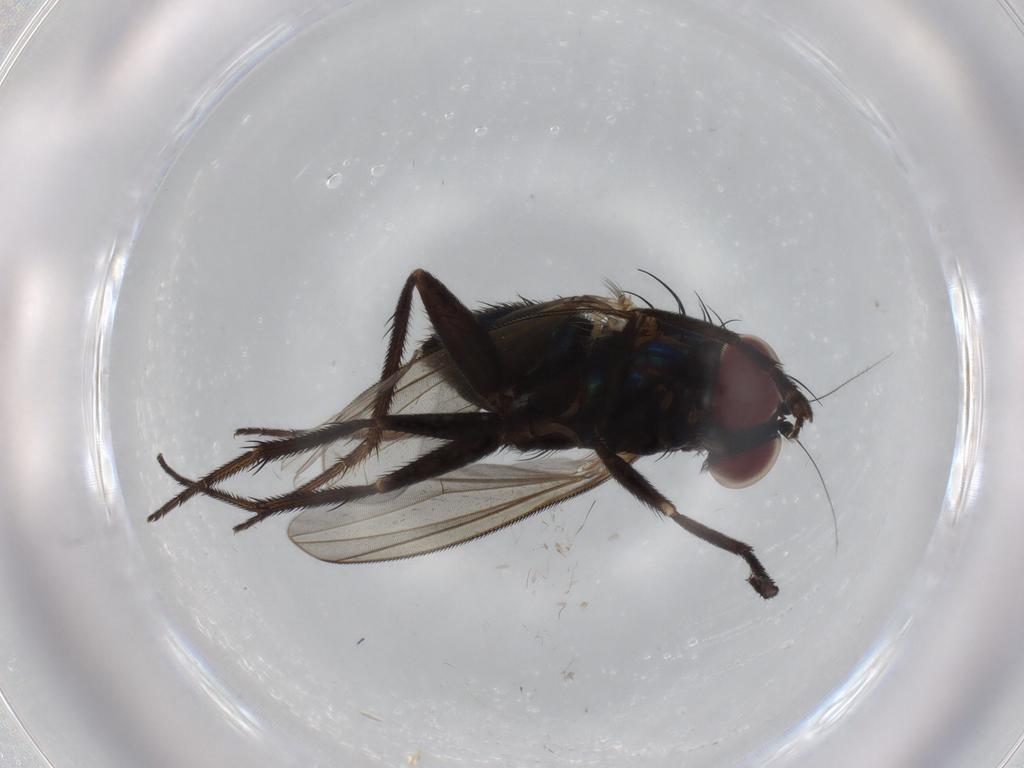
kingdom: Animalia
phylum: Arthropoda
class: Insecta
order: Diptera
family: Dolichopodidae
